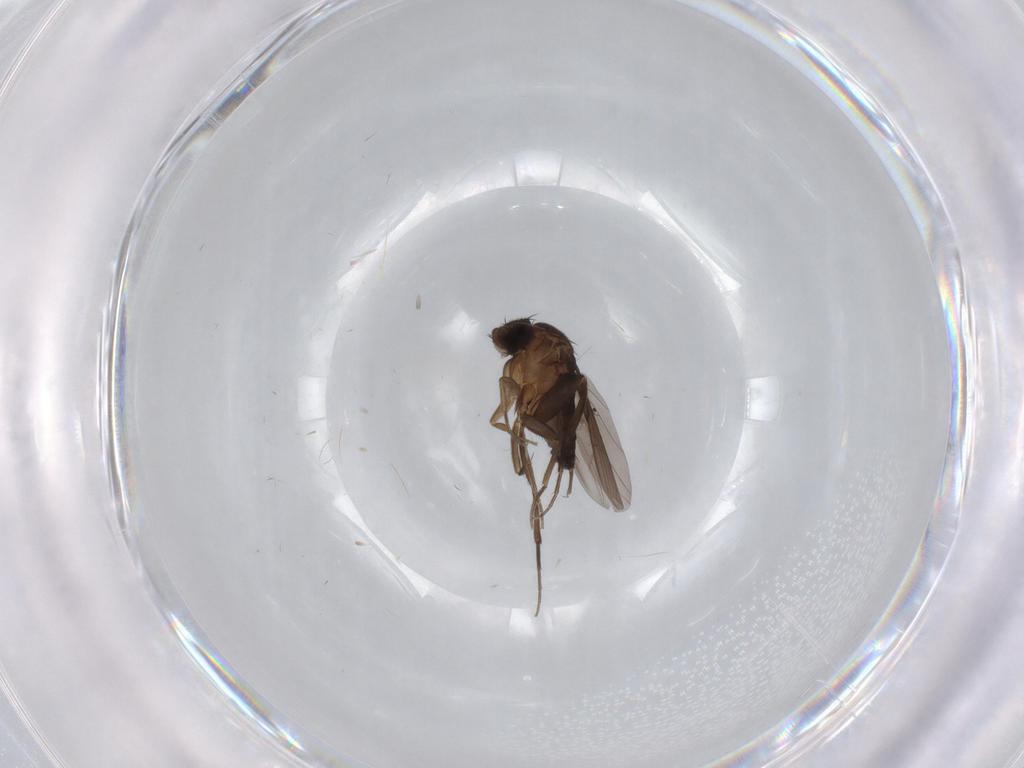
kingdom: Animalia
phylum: Arthropoda
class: Insecta
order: Diptera
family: Phoridae
